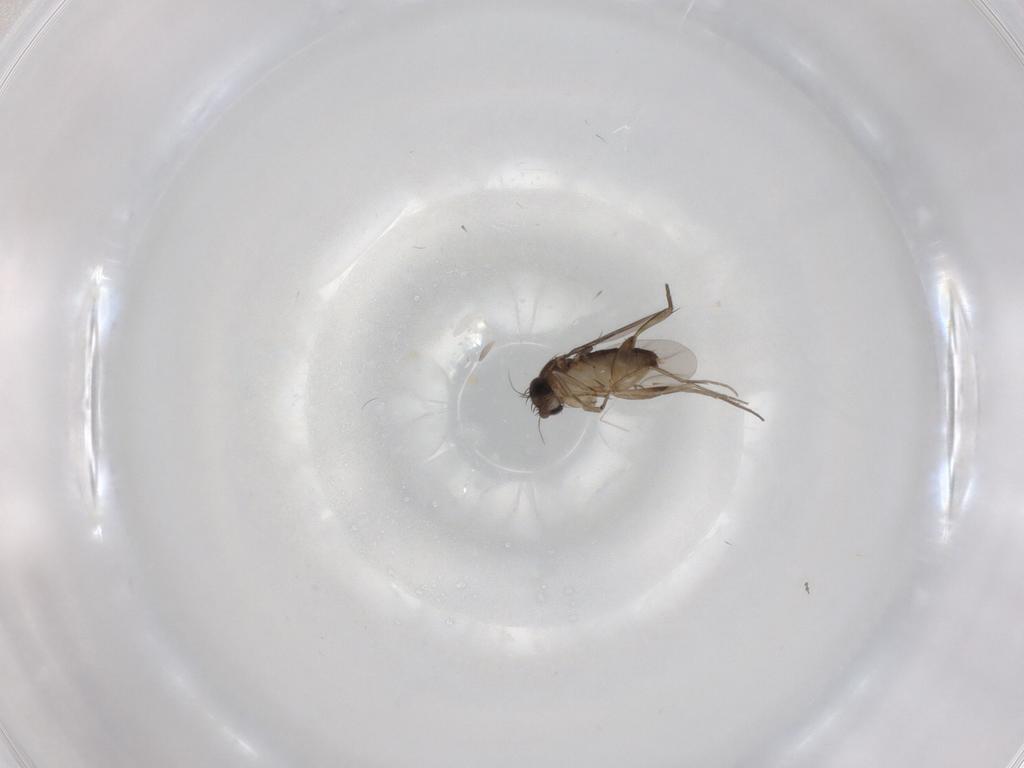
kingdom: Animalia
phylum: Arthropoda
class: Insecta
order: Diptera
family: Phoridae
